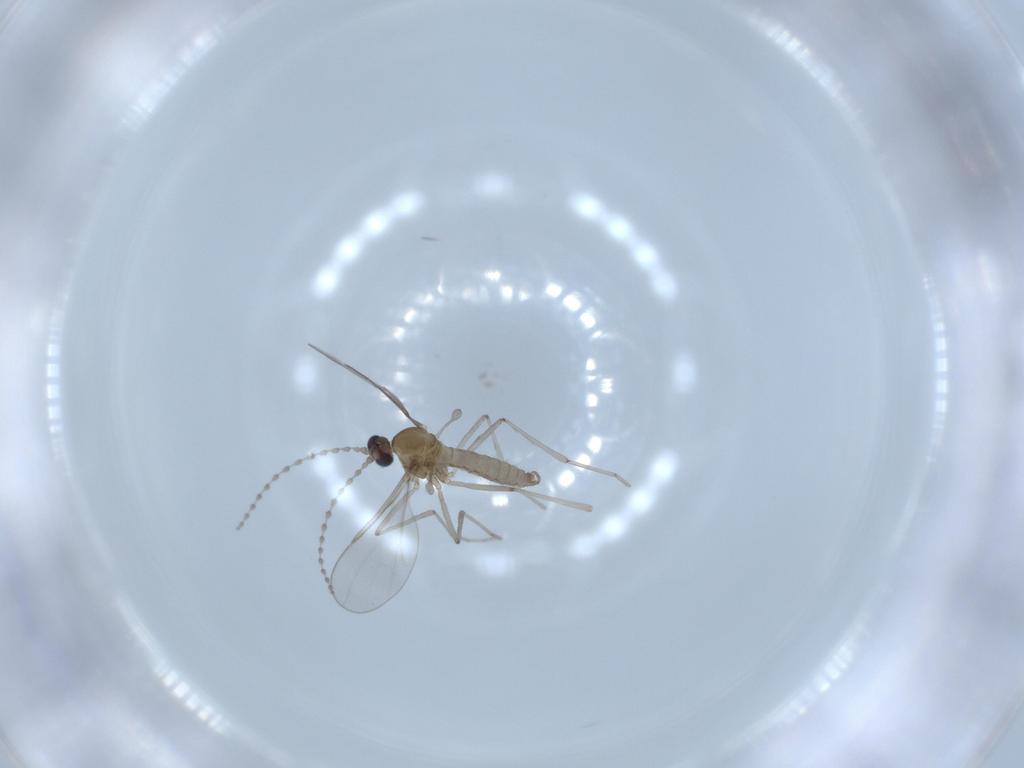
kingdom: Animalia
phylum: Arthropoda
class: Insecta
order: Diptera
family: Cecidomyiidae
